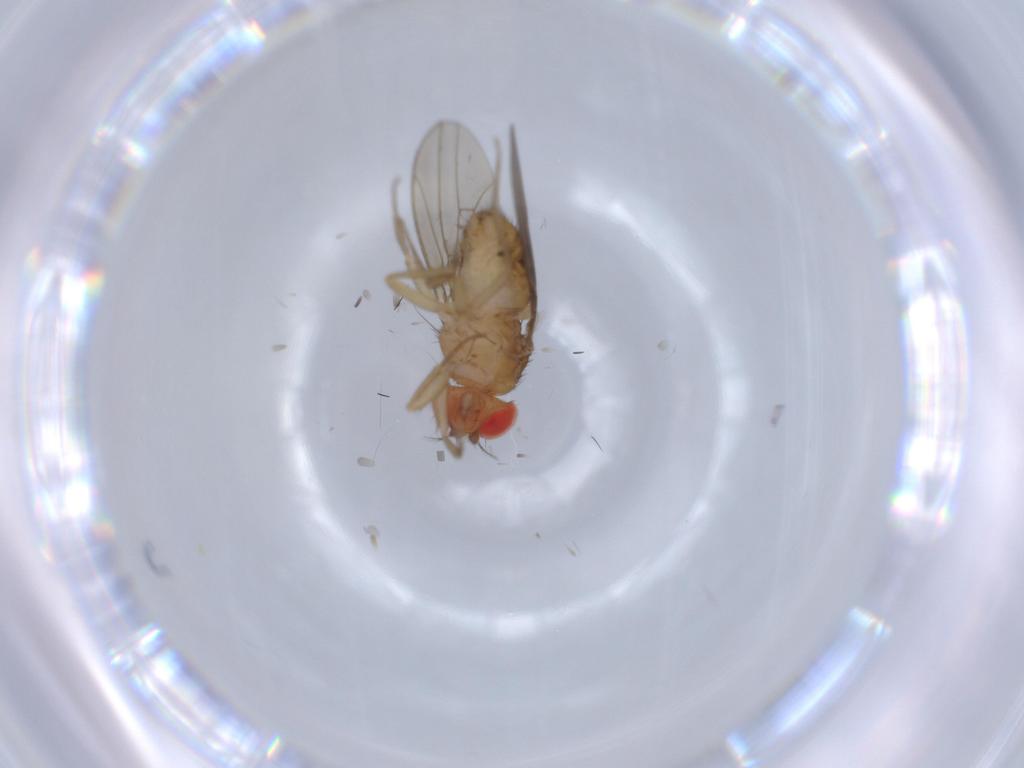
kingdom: Animalia
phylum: Arthropoda
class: Insecta
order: Diptera
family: Drosophilidae
